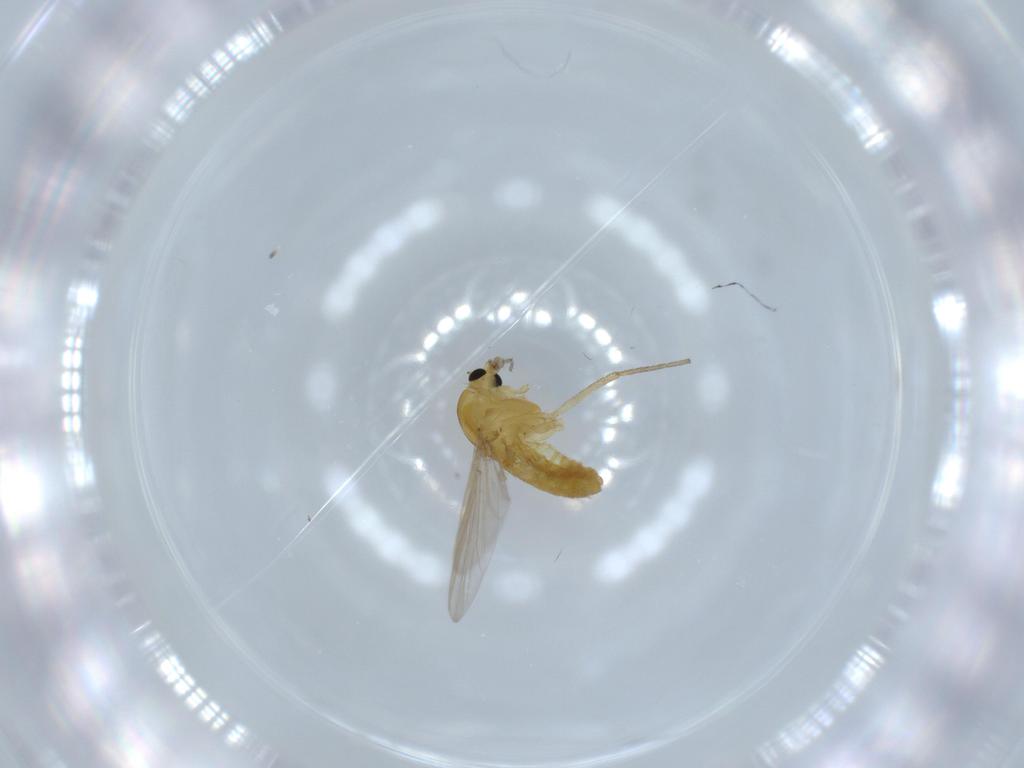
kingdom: Animalia
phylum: Arthropoda
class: Insecta
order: Diptera
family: Chironomidae
